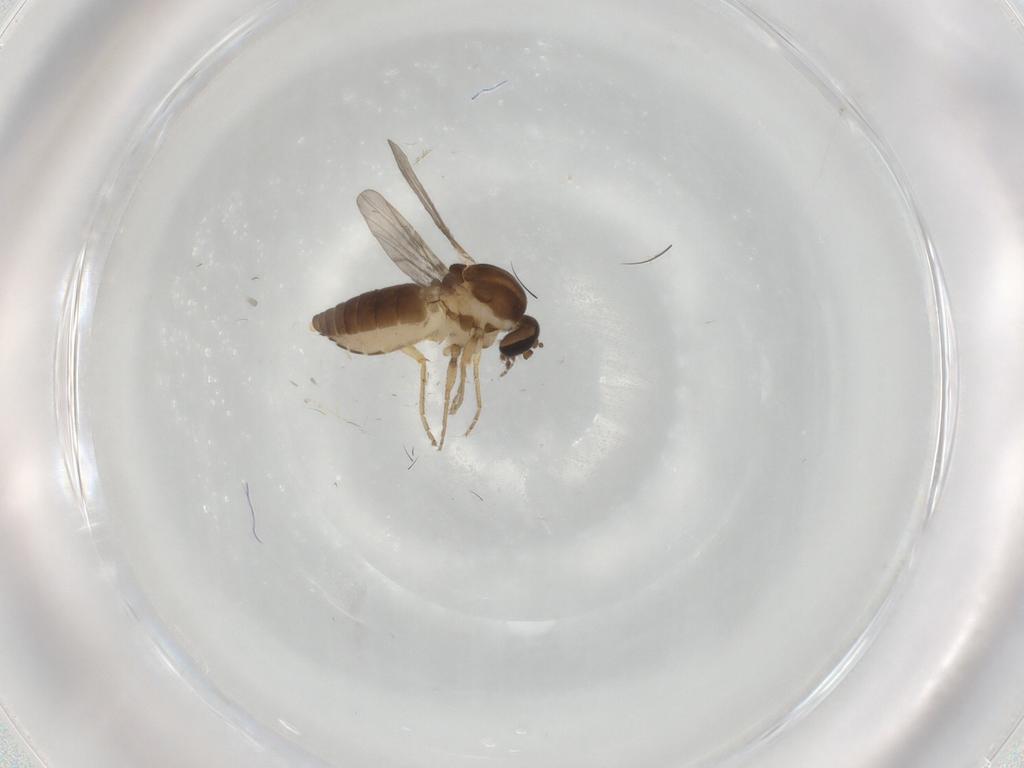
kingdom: Animalia
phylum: Arthropoda
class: Insecta
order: Diptera
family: Ceratopogonidae
